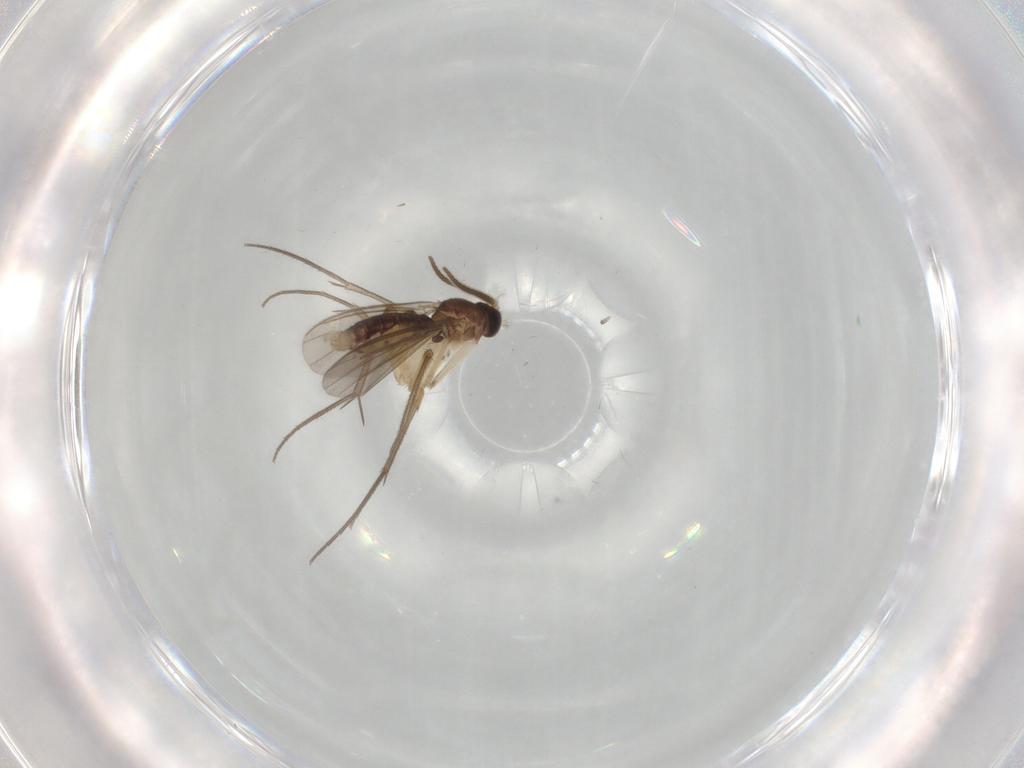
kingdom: Animalia
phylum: Arthropoda
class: Insecta
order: Diptera
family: Mycetophilidae
